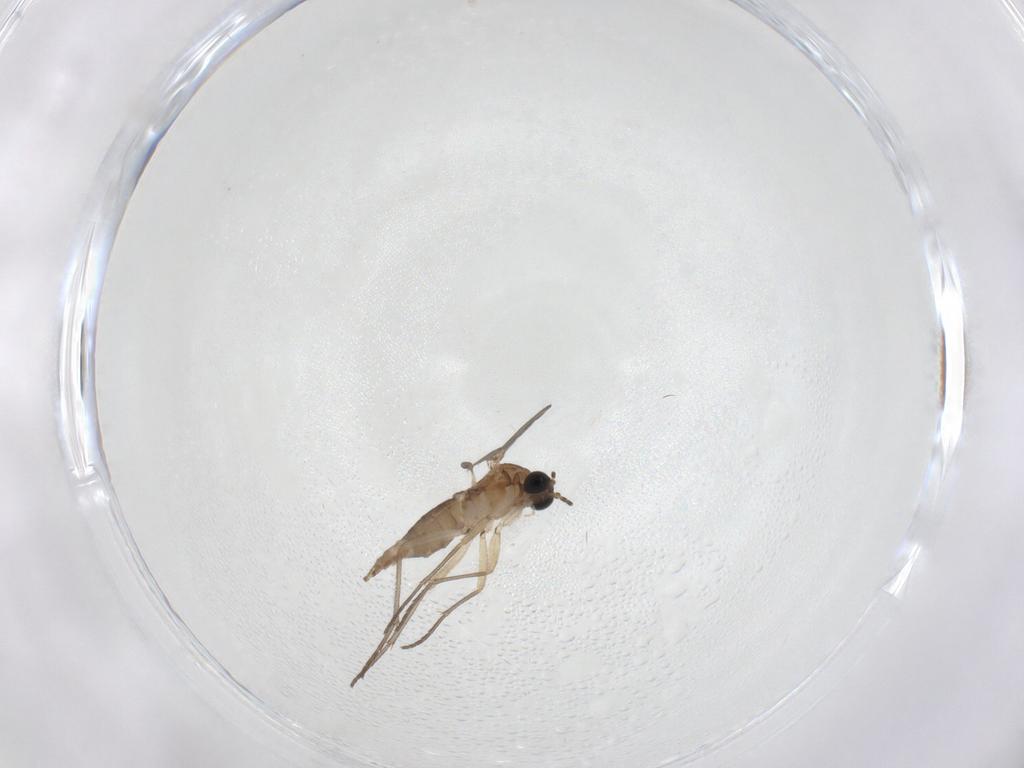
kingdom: Animalia
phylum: Arthropoda
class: Insecta
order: Diptera
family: Sciaridae
